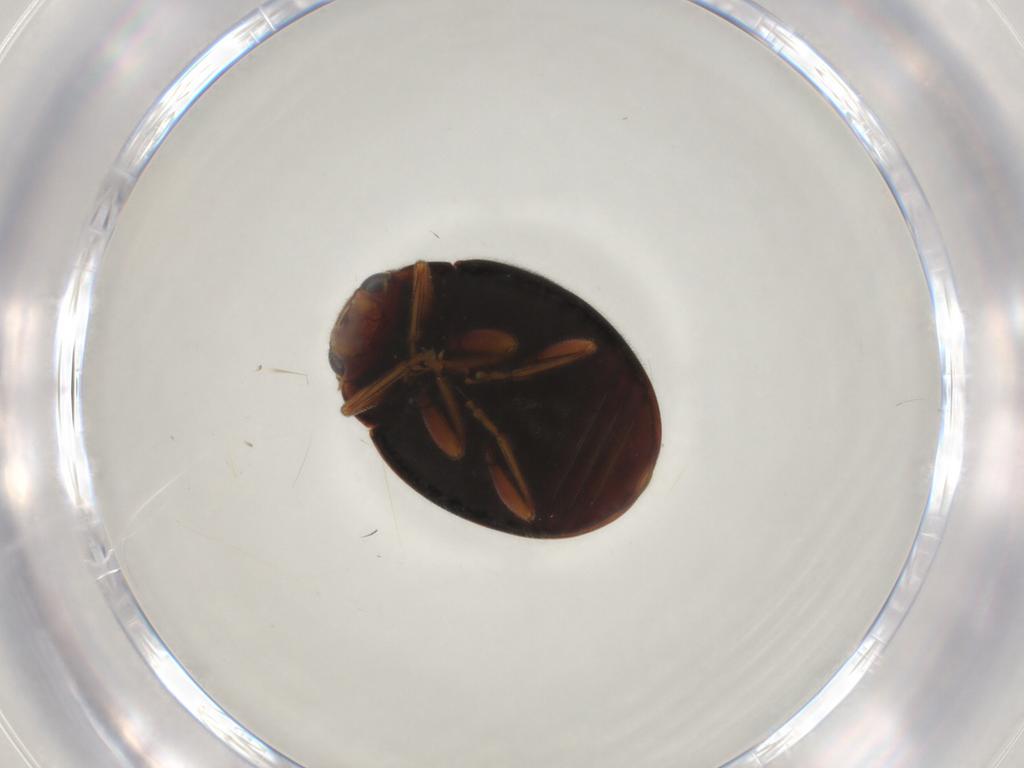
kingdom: Animalia
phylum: Arthropoda
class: Insecta
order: Coleoptera
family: Coccinellidae
